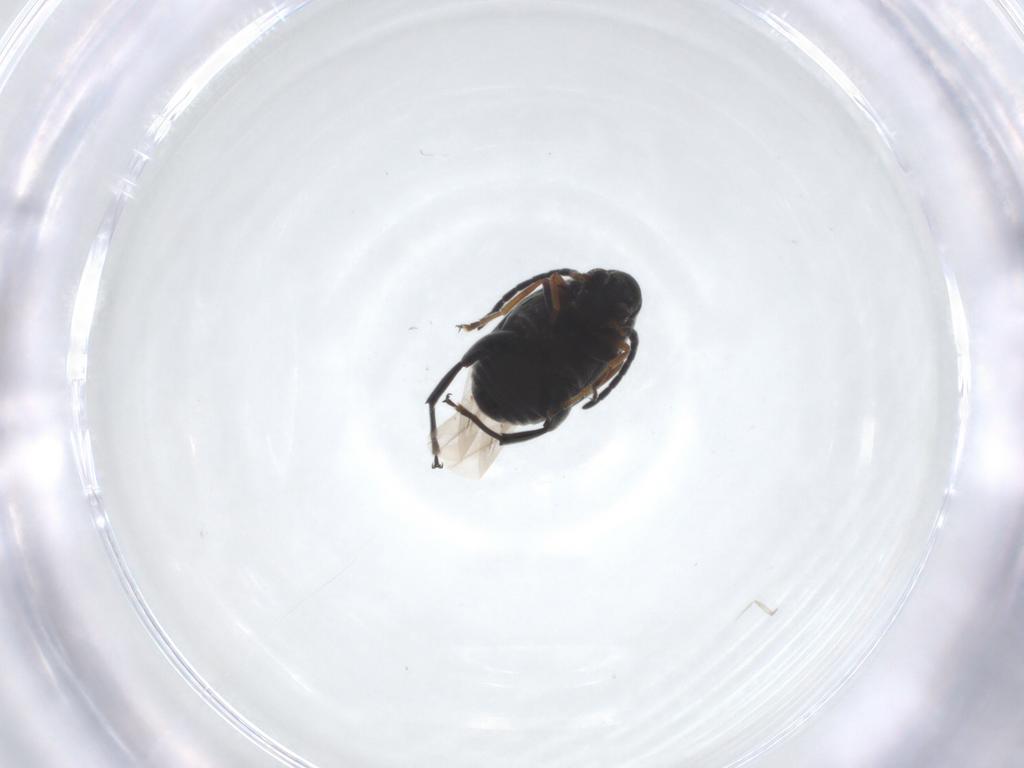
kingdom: Animalia
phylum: Arthropoda
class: Insecta
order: Coleoptera
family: Chrysomelidae
